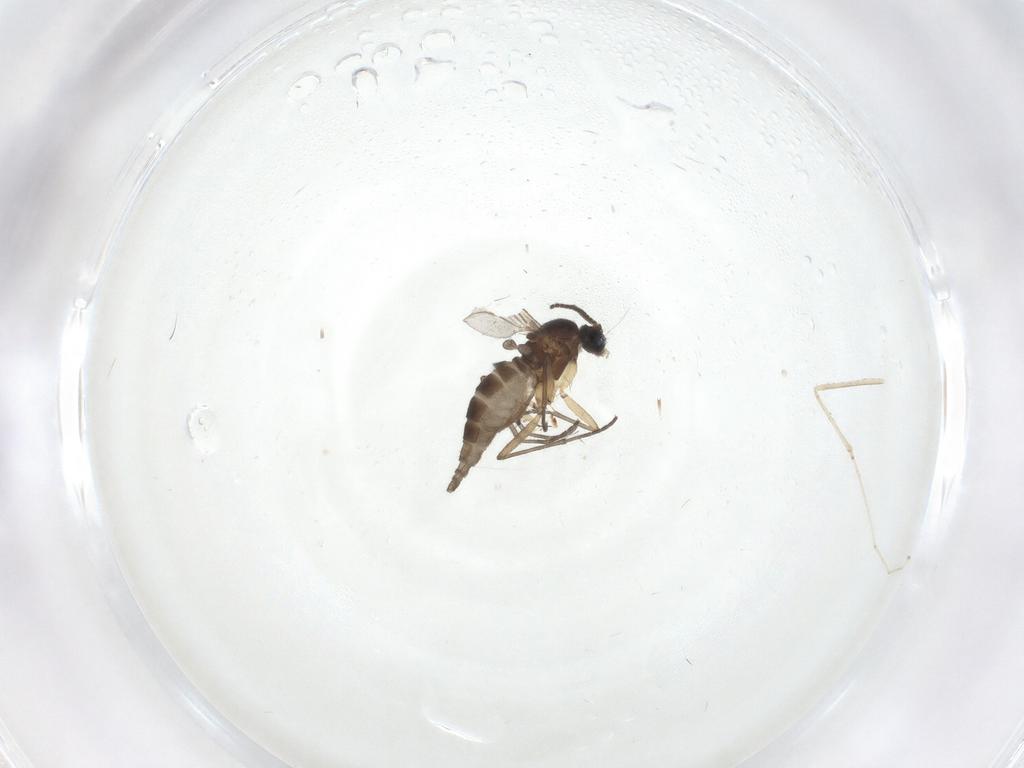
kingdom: Animalia
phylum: Arthropoda
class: Insecta
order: Diptera
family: Sciaridae
